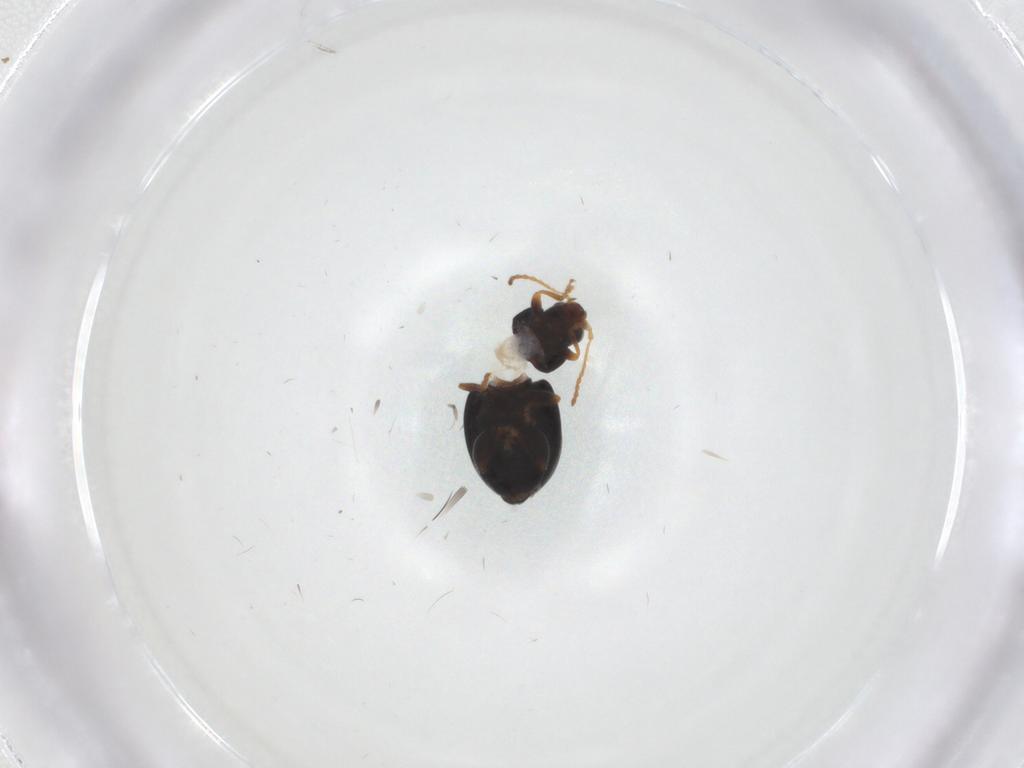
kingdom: Animalia
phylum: Arthropoda
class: Insecta
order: Coleoptera
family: Chrysomelidae
